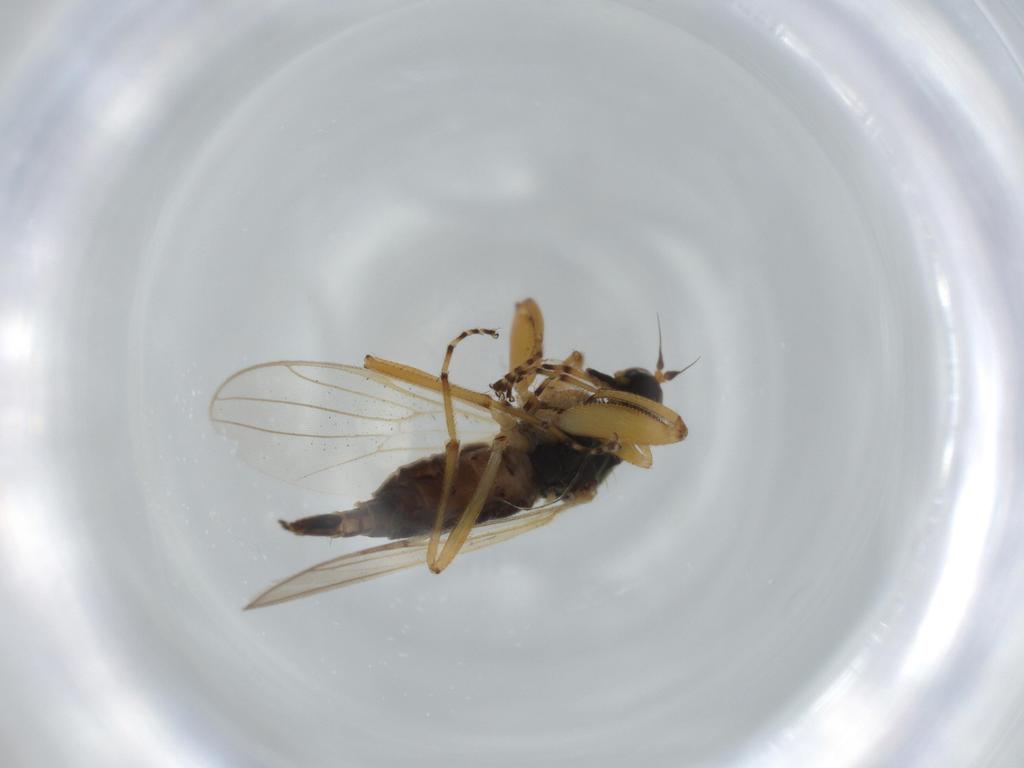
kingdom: Animalia
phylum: Arthropoda
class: Insecta
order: Diptera
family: Hybotidae
